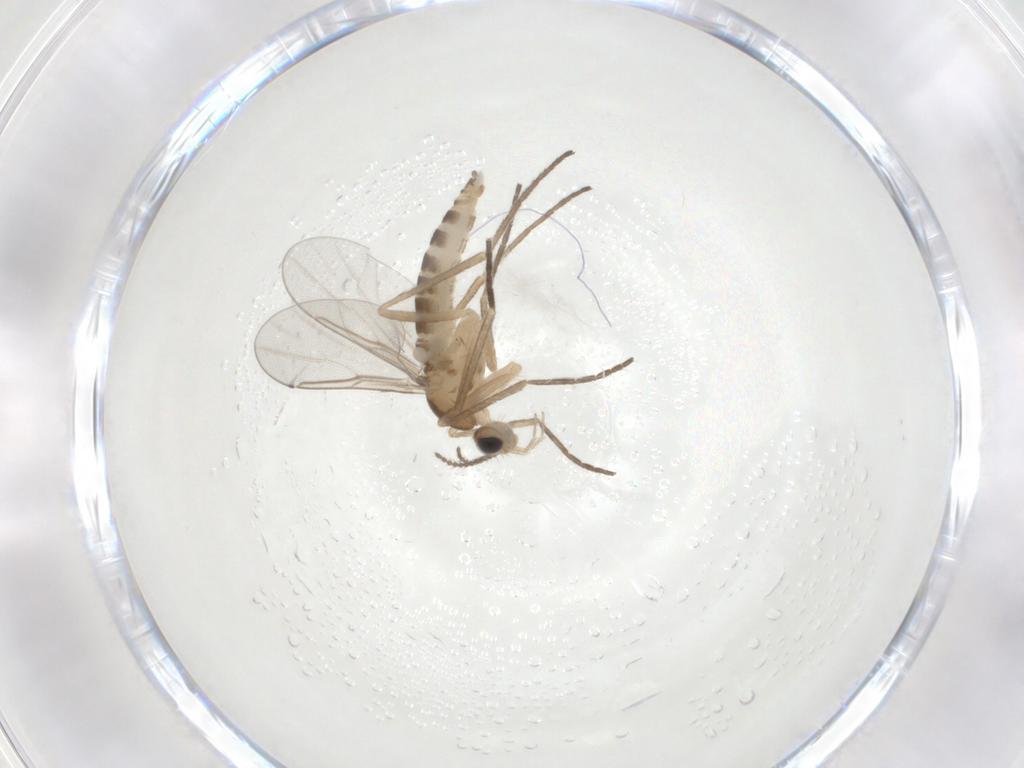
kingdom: Animalia
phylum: Arthropoda
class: Insecta
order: Diptera
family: Cecidomyiidae
